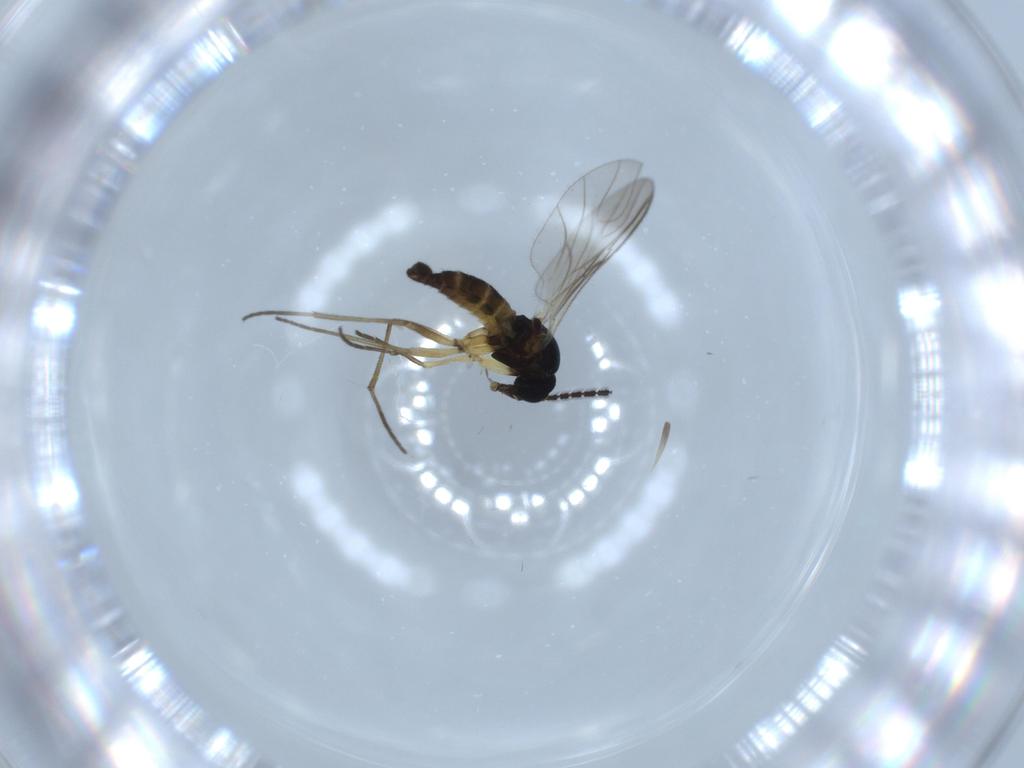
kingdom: Animalia
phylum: Arthropoda
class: Insecta
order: Diptera
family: Sciaridae
